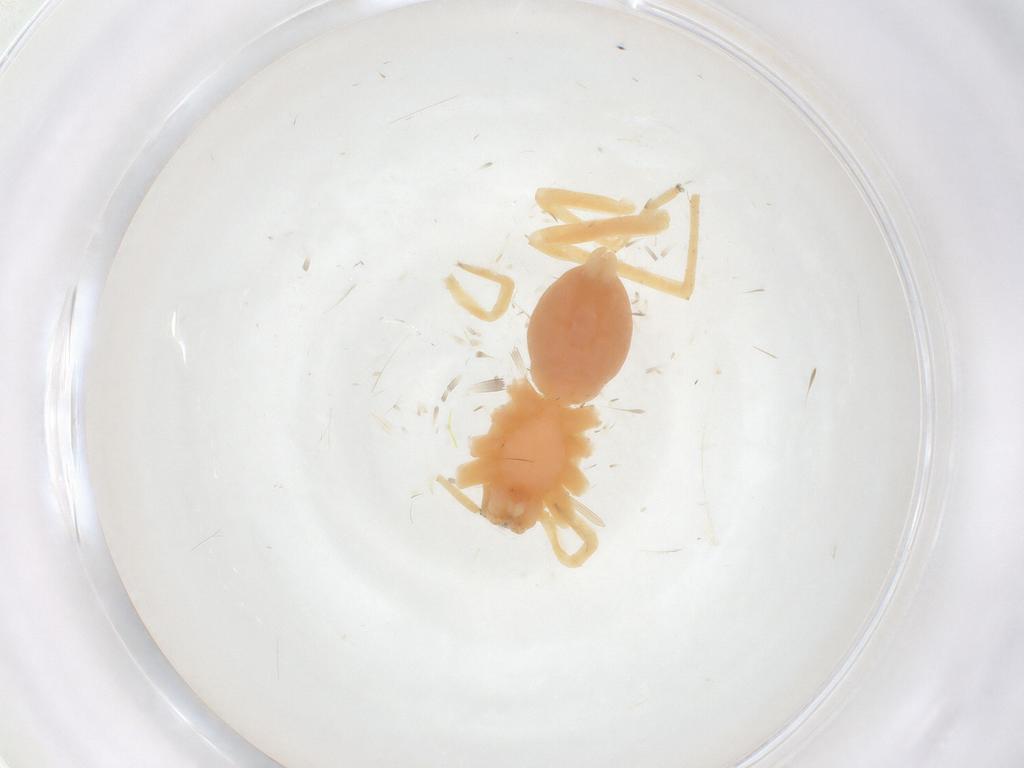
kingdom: Animalia
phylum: Arthropoda
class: Arachnida
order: Araneae
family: Anyphaenidae
